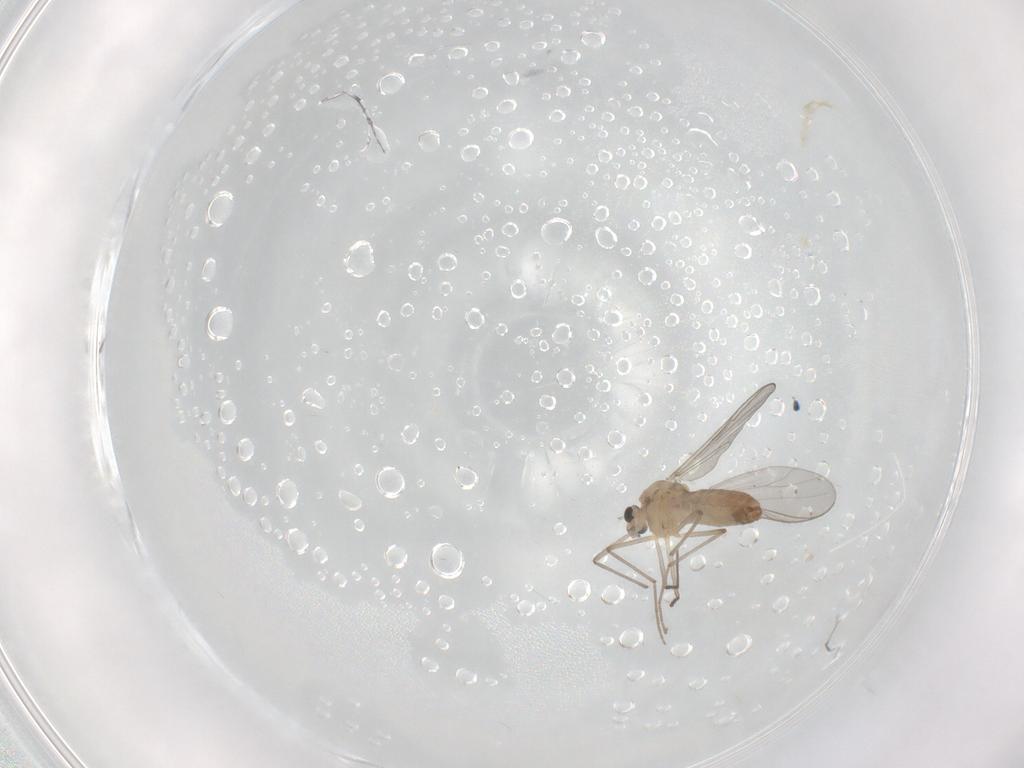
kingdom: Animalia
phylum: Arthropoda
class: Insecta
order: Diptera
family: Chironomidae
